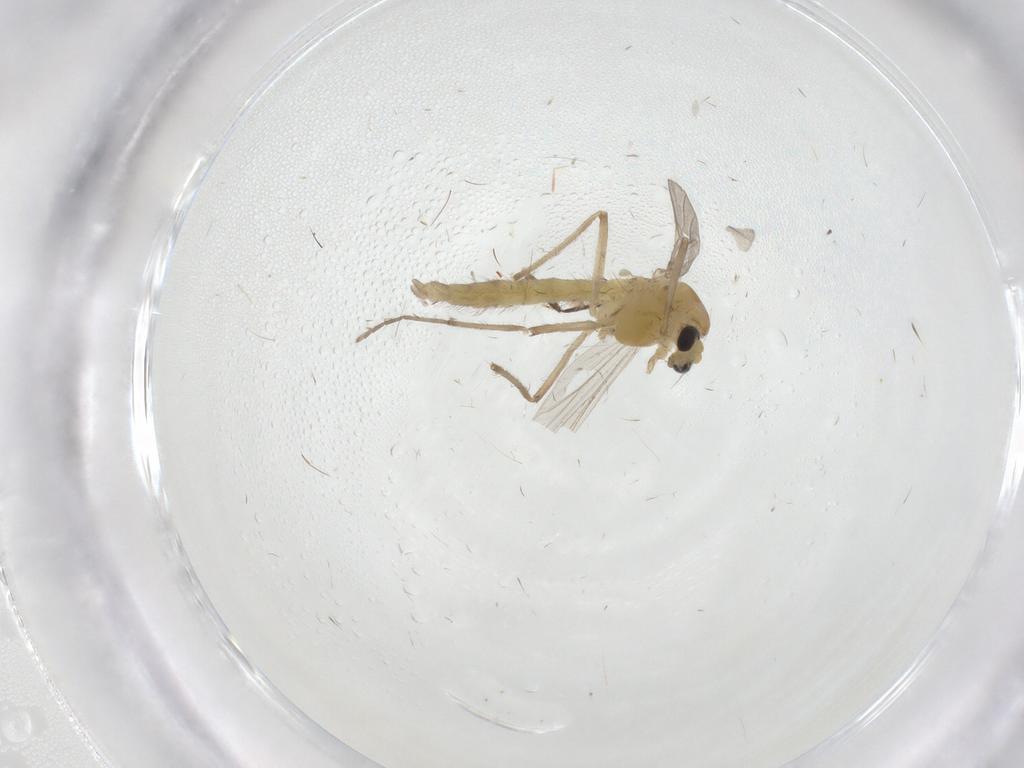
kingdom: Animalia
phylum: Arthropoda
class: Insecta
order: Diptera
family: Chironomidae
